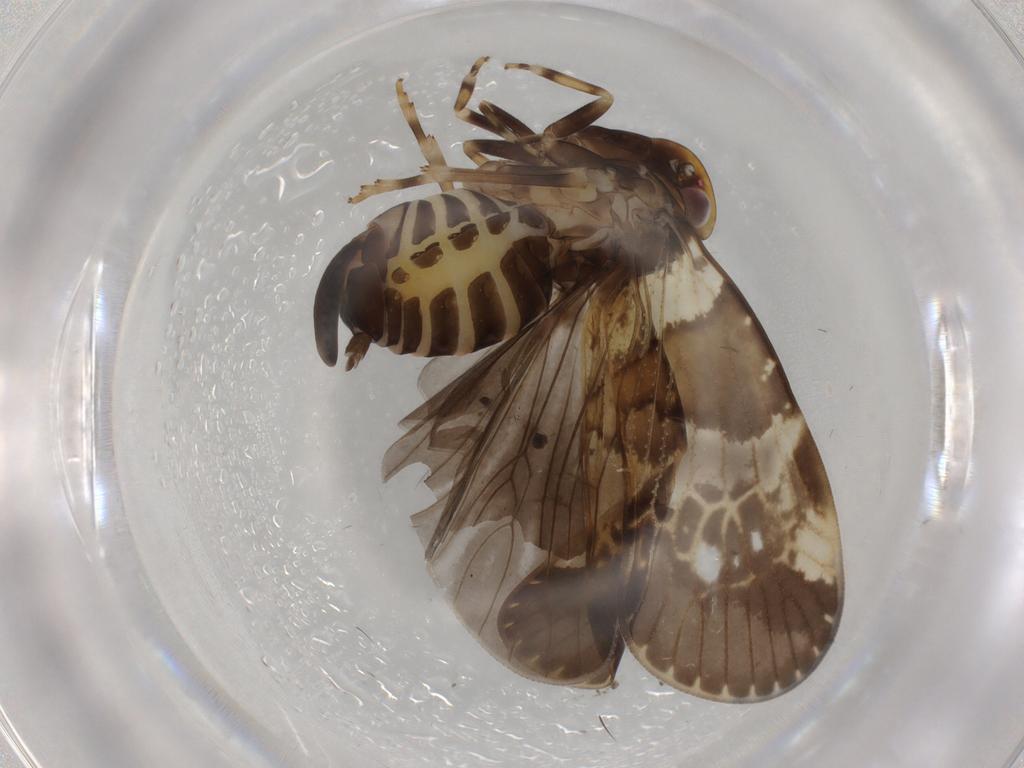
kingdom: Animalia
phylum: Arthropoda
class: Insecta
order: Hemiptera
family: Cixiidae
